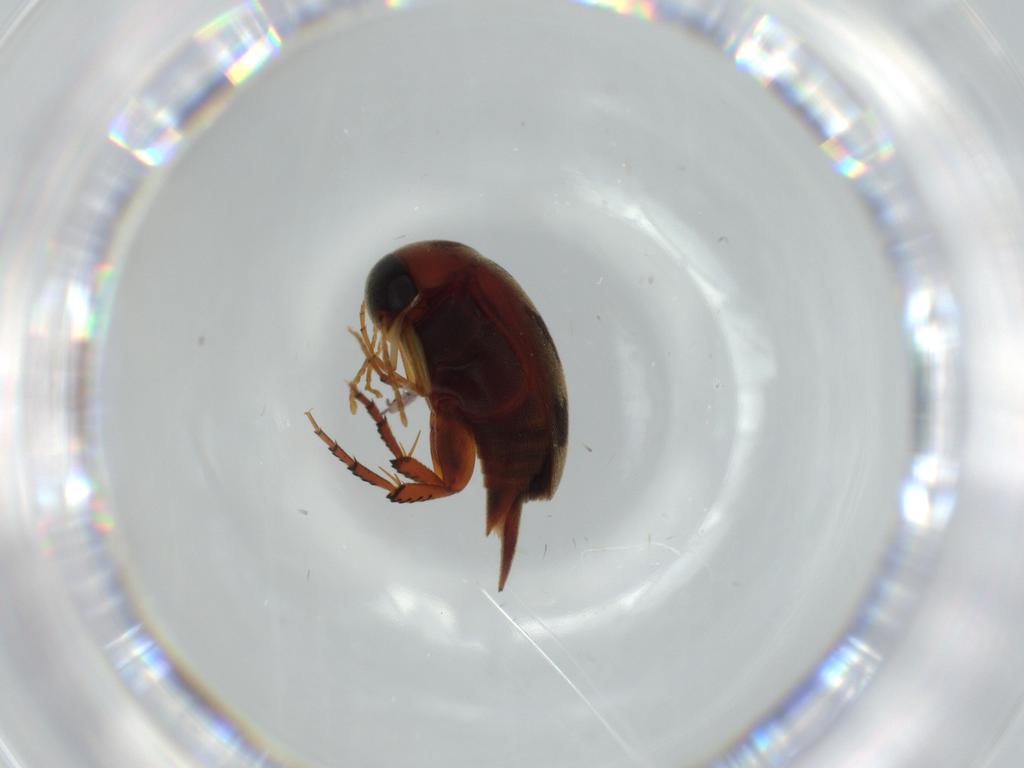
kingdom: Animalia
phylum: Arthropoda
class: Insecta
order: Coleoptera
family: Mordellidae
